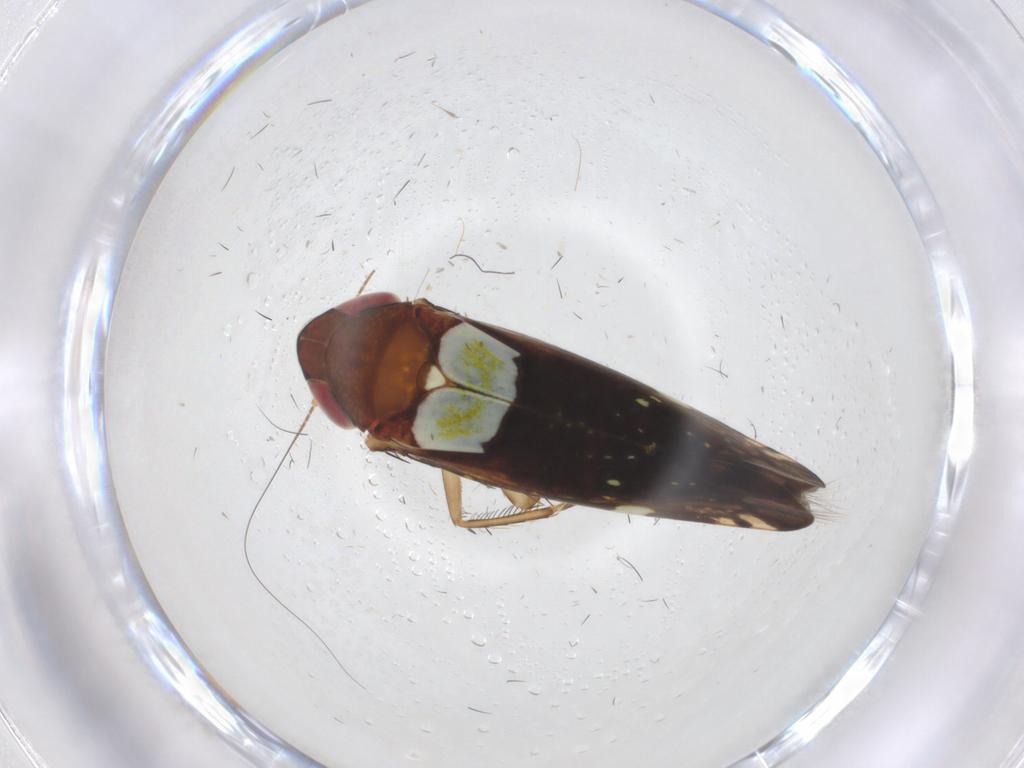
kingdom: Animalia
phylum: Arthropoda
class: Insecta
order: Hemiptera
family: Cicadellidae
